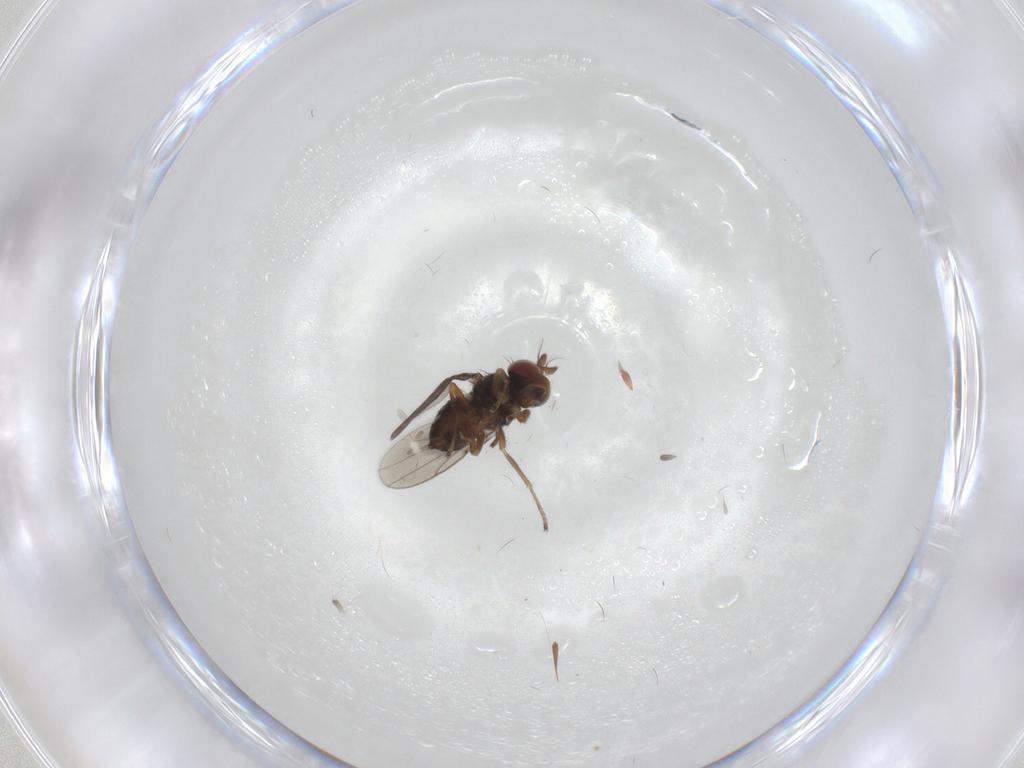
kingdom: Animalia
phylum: Arthropoda
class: Insecta
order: Diptera
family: Ephydridae
